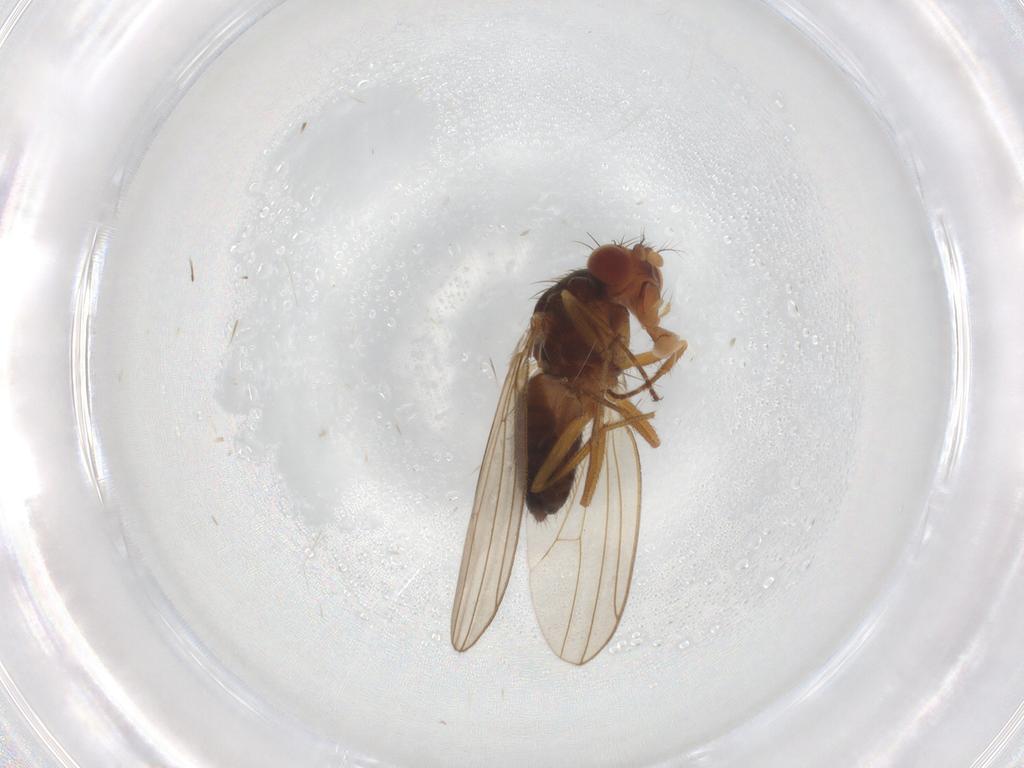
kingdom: Animalia
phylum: Arthropoda
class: Insecta
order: Diptera
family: Drosophilidae
